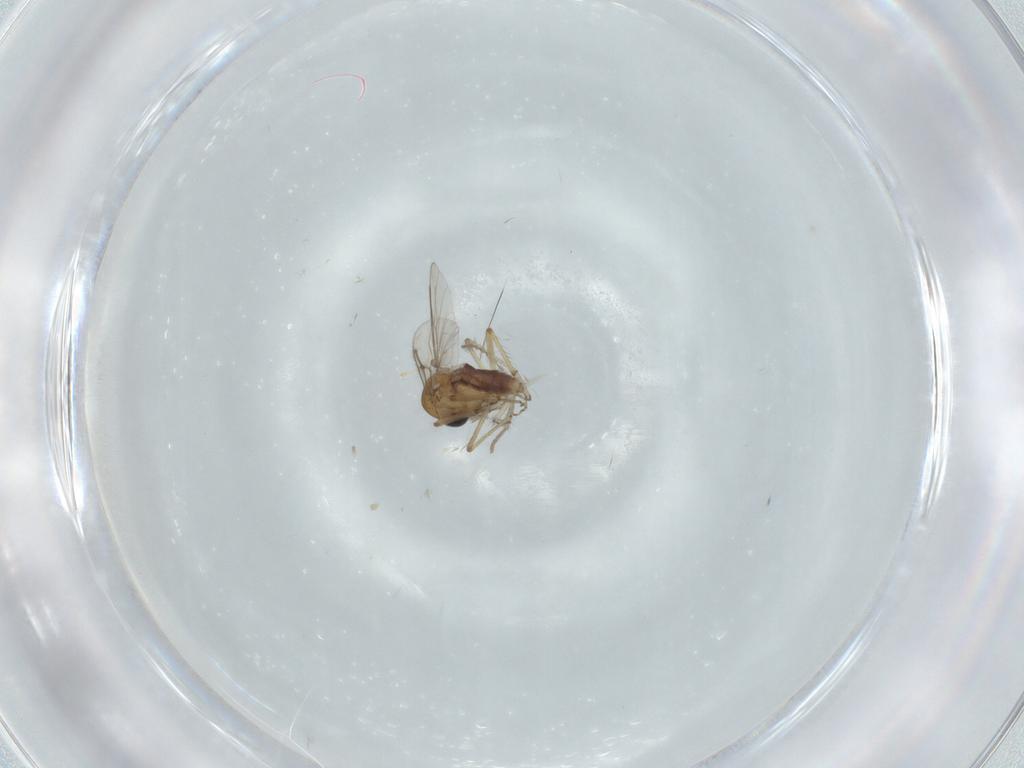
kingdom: Animalia
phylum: Arthropoda
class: Insecta
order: Diptera
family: Ceratopogonidae
